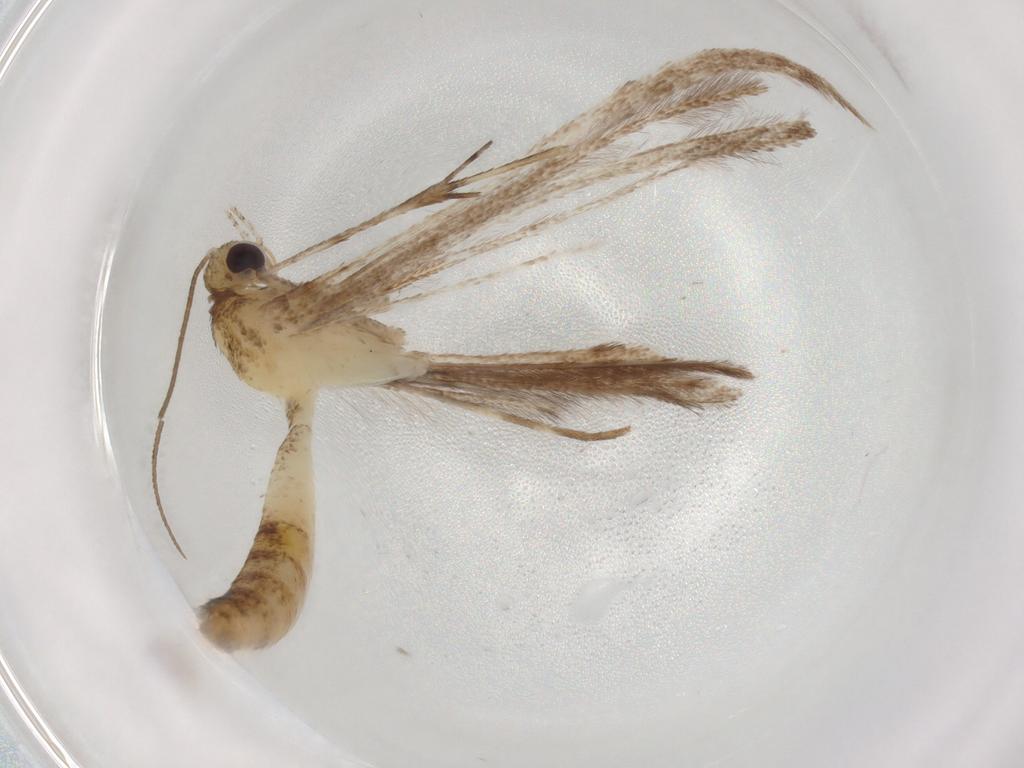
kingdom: Animalia
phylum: Arthropoda
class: Insecta
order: Lepidoptera
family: Pterophoridae
